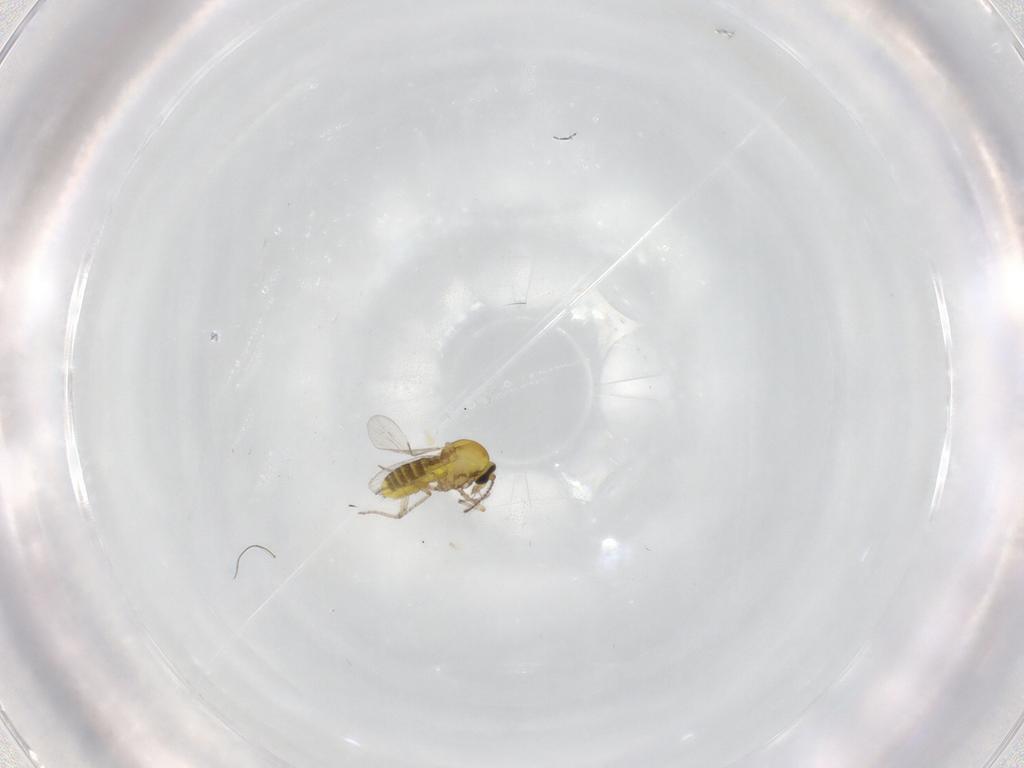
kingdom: Animalia
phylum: Arthropoda
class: Insecta
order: Diptera
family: Ceratopogonidae
